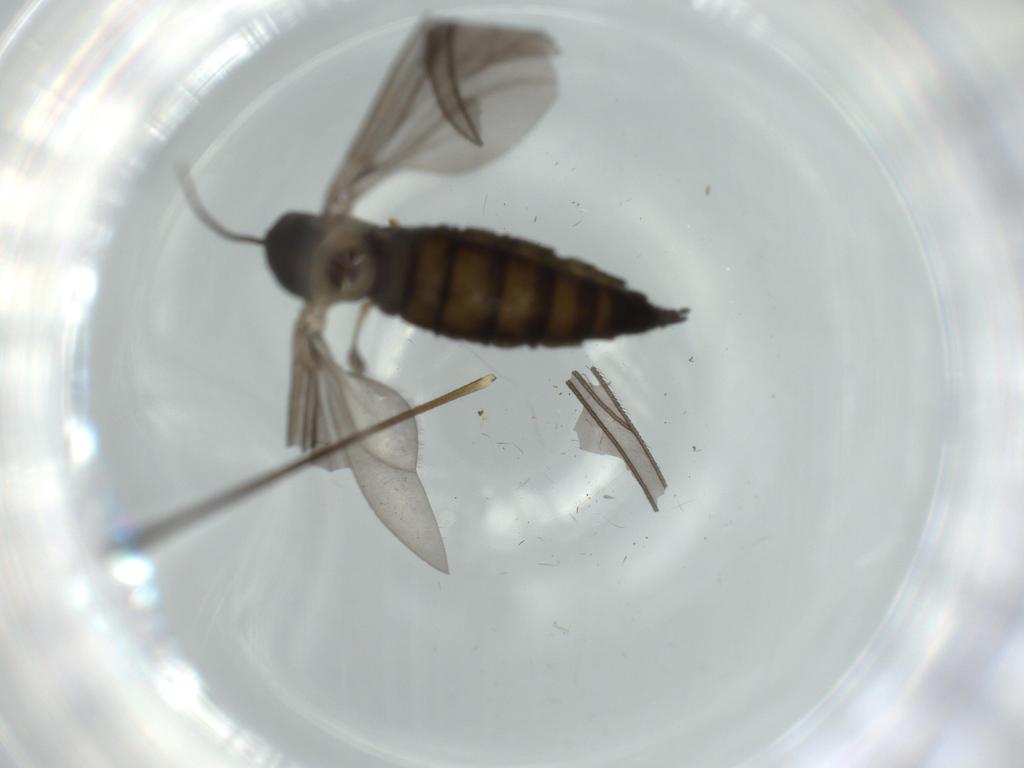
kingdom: Animalia
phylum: Arthropoda
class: Insecta
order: Diptera
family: Sciaridae
